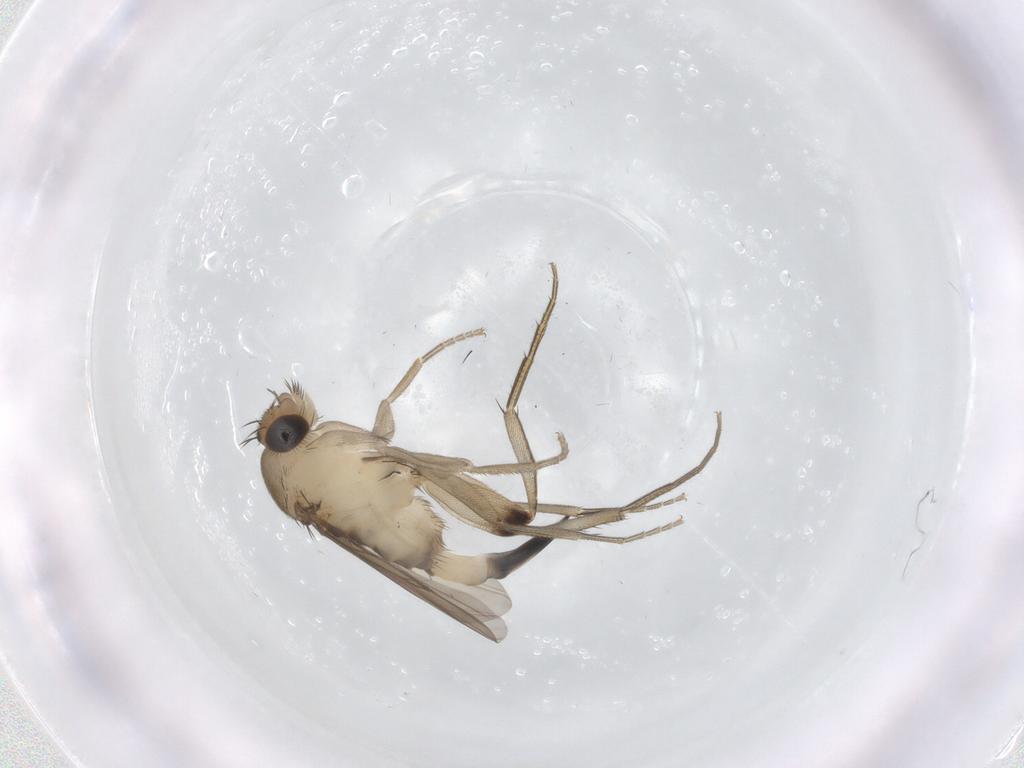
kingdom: Animalia
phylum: Arthropoda
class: Insecta
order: Diptera
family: Phoridae
